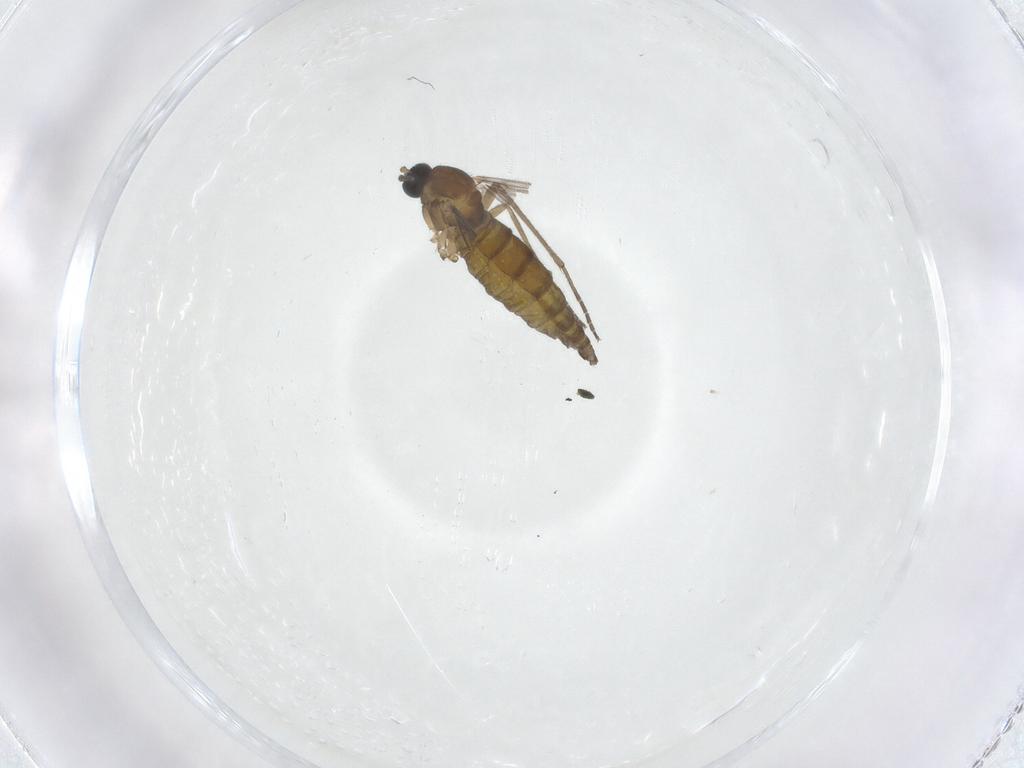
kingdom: Animalia
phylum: Arthropoda
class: Insecta
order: Diptera
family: Sciaridae
